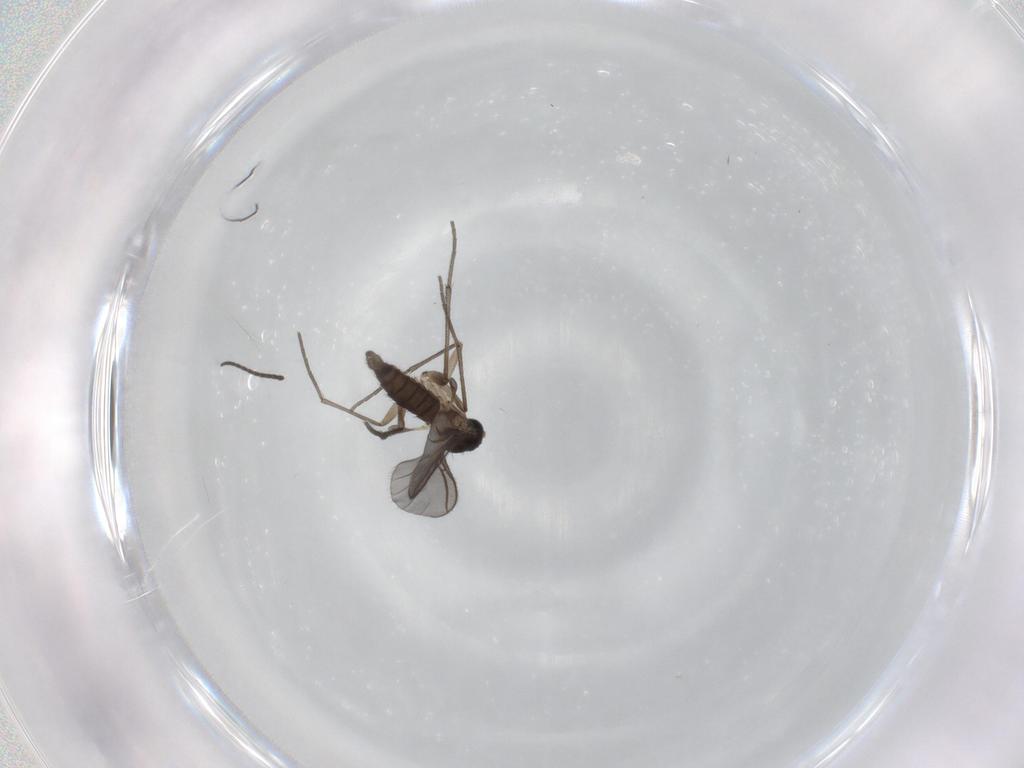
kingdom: Animalia
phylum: Arthropoda
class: Insecta
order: Diptera
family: Sciaridae
